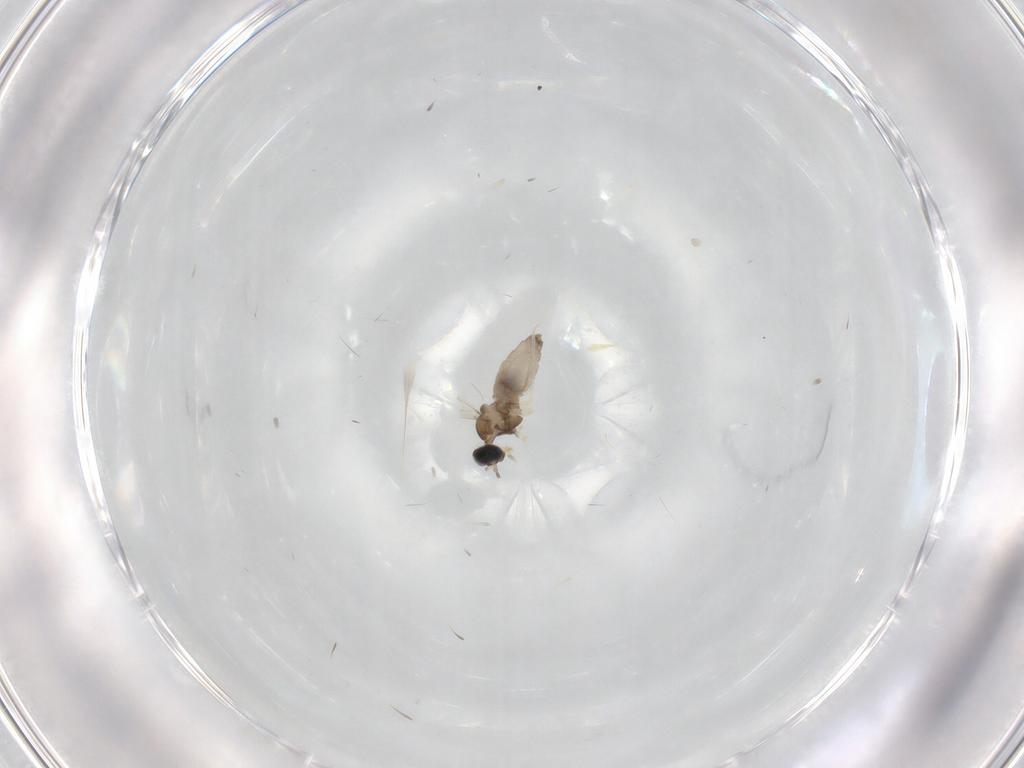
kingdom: Animalia
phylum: Arthropoda
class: Insecta
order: Diptera
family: Cecidomyiidae
